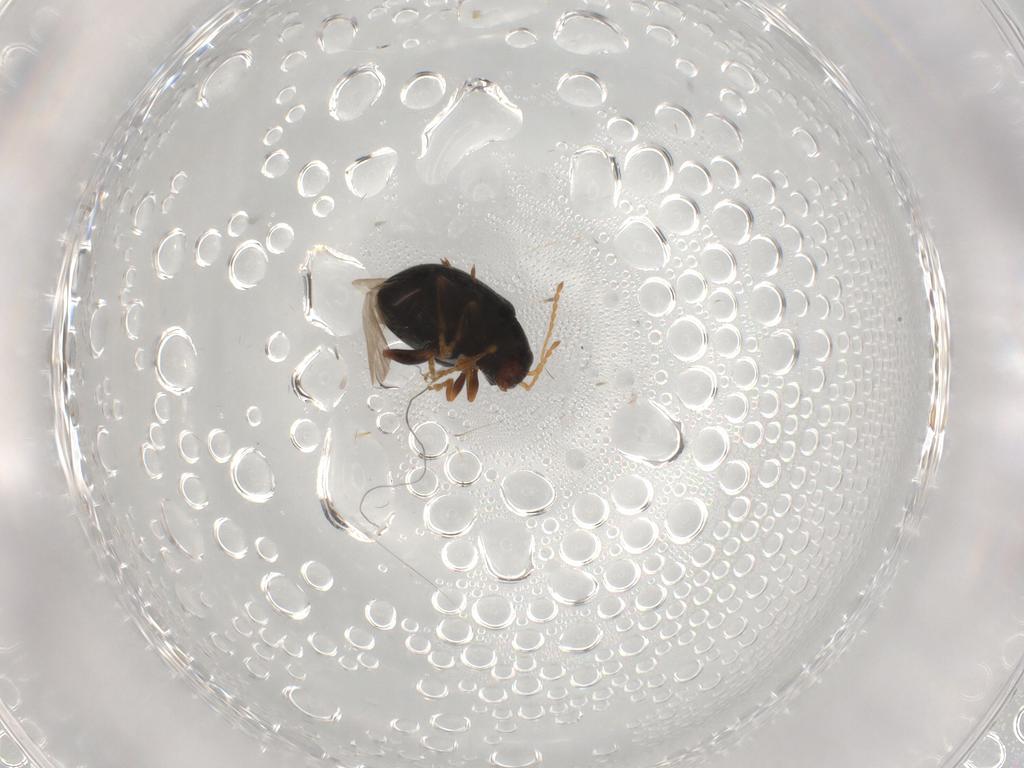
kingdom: Animalia
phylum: Arthropoda
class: Insecta
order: Coleoptera
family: Chrysomelidae
